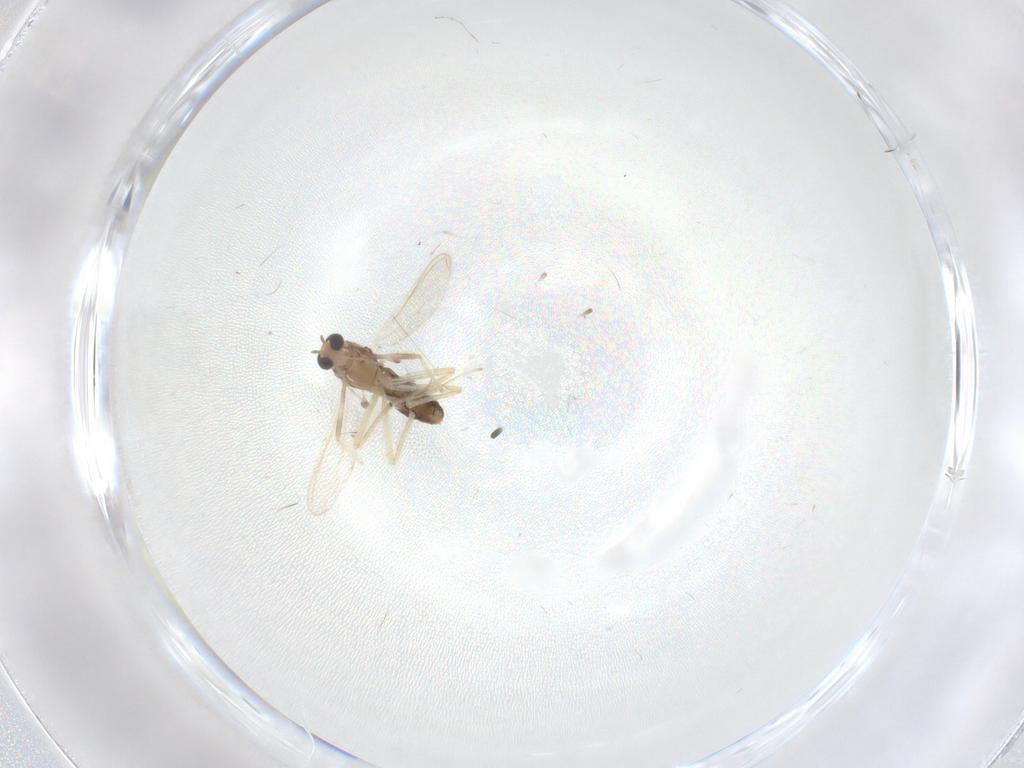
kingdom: Animalia
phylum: Arthropoda
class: Insecta
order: Diptera
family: Chironomidae
